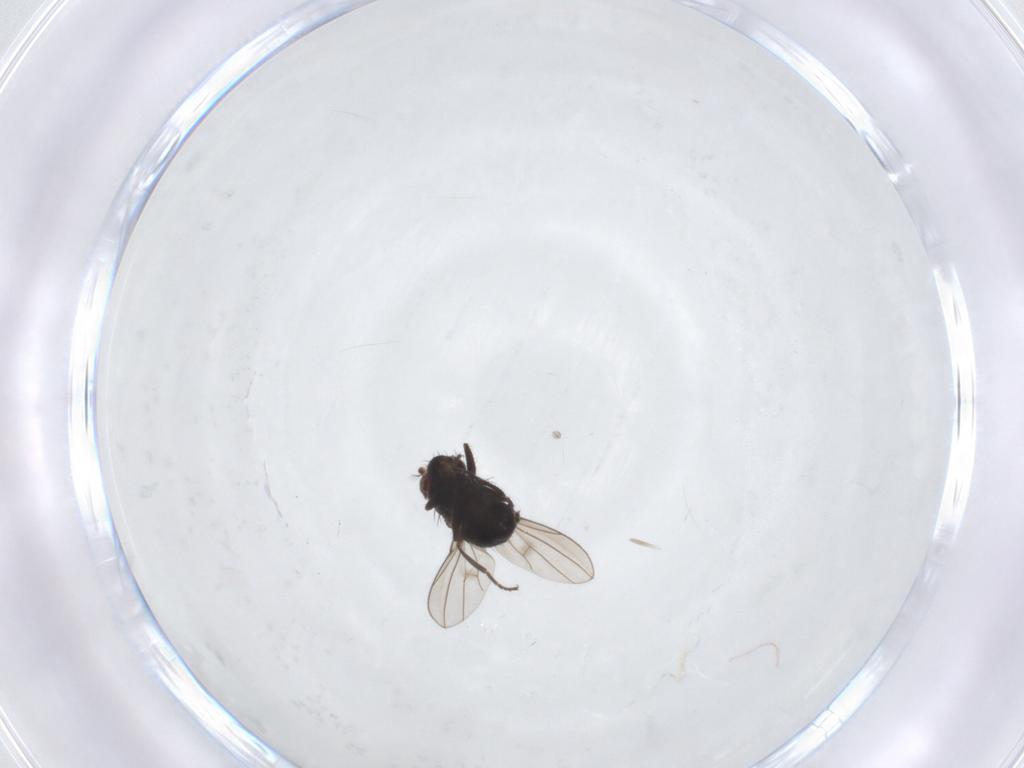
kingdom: Animalia
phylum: Arthropoda
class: Insecta
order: Diptera
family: Ephydridae
